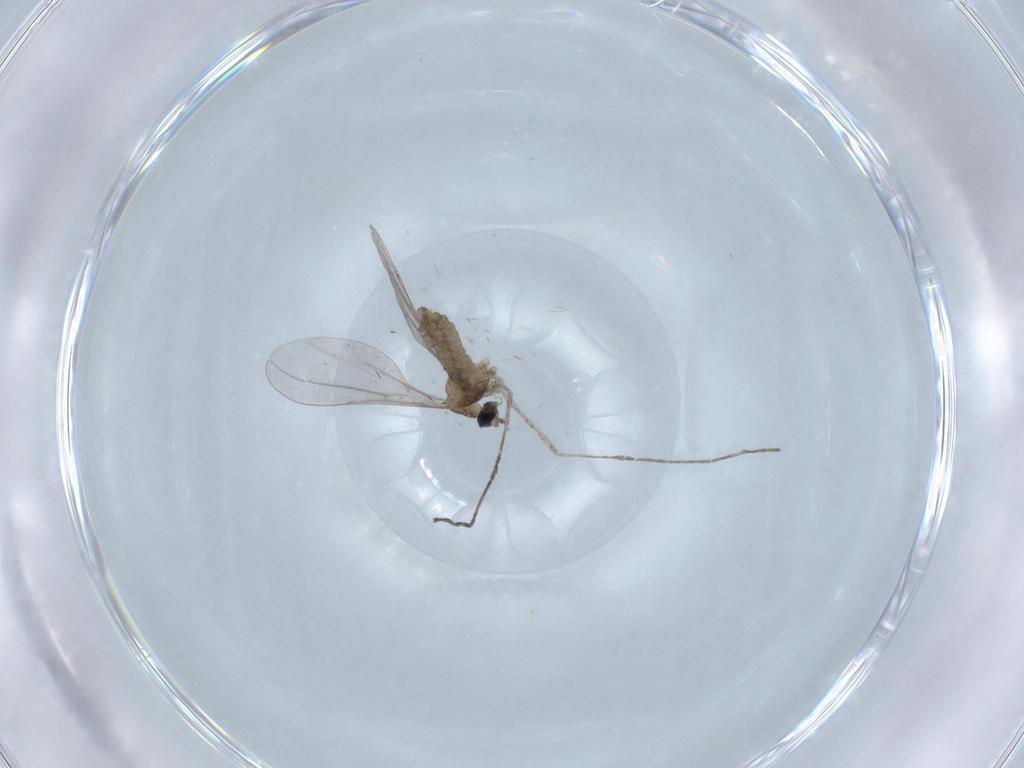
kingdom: Animalia
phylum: Arthropoda
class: Insecta
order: Diptera
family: Cecidomyiidae
